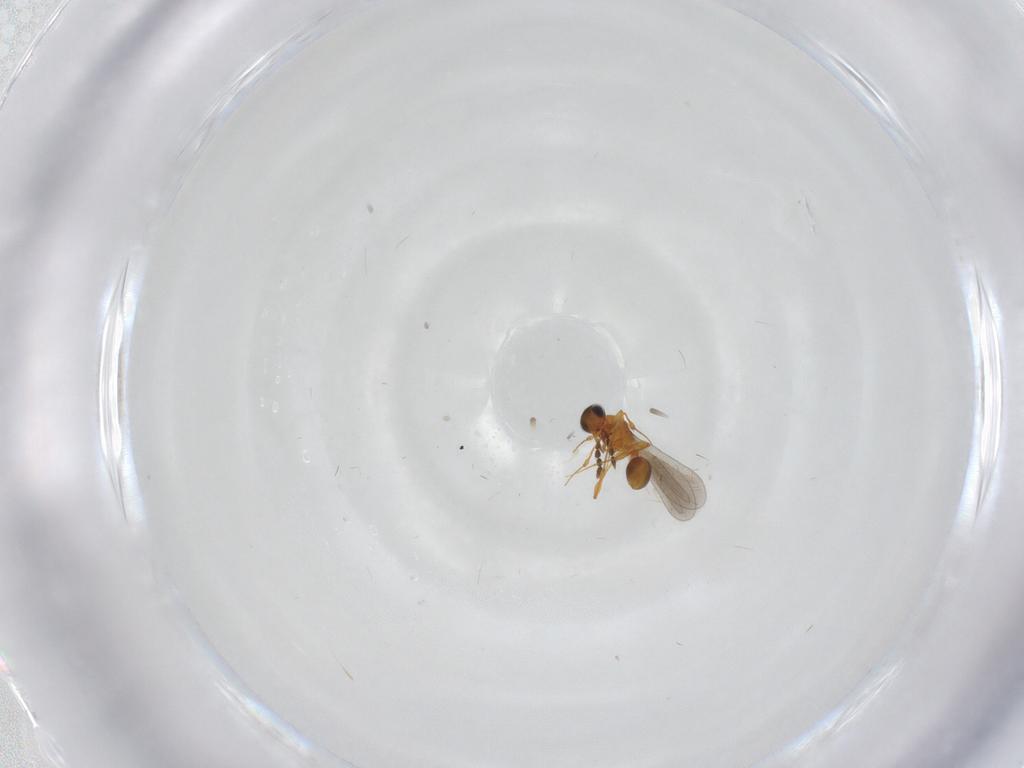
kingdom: Animalia
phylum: Arthropoda
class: Insecta
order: Hymenoptera
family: Platygastridae
